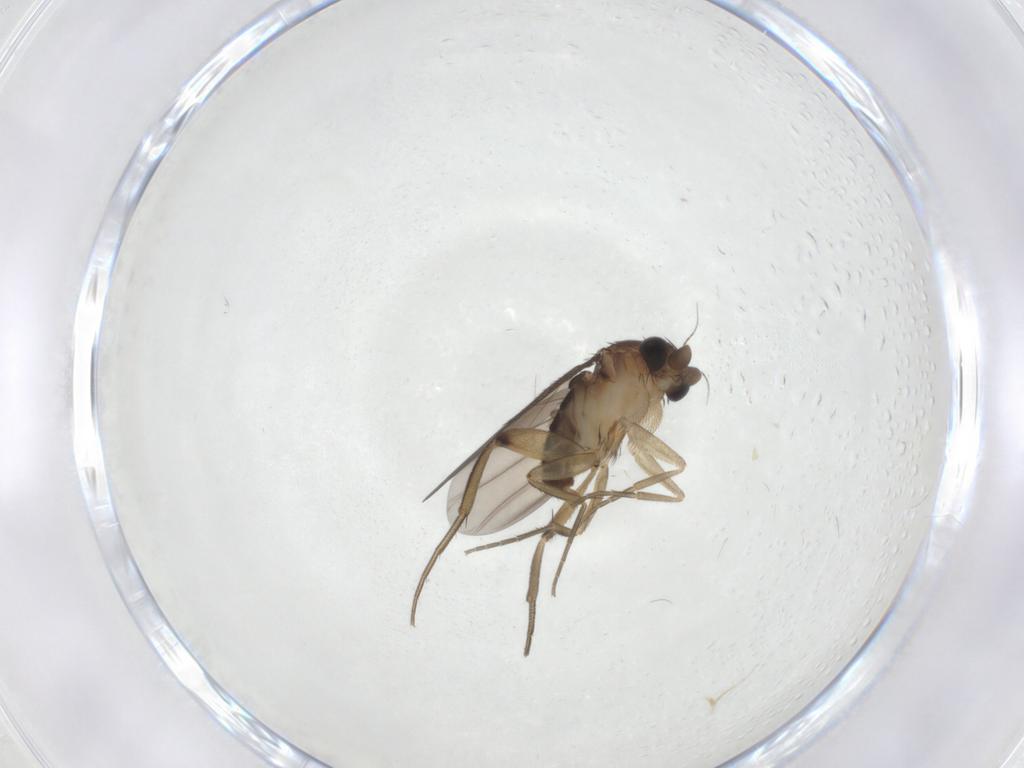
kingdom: Animalia
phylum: Arthropoda
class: Insecta
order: Diptera
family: Phoridae
